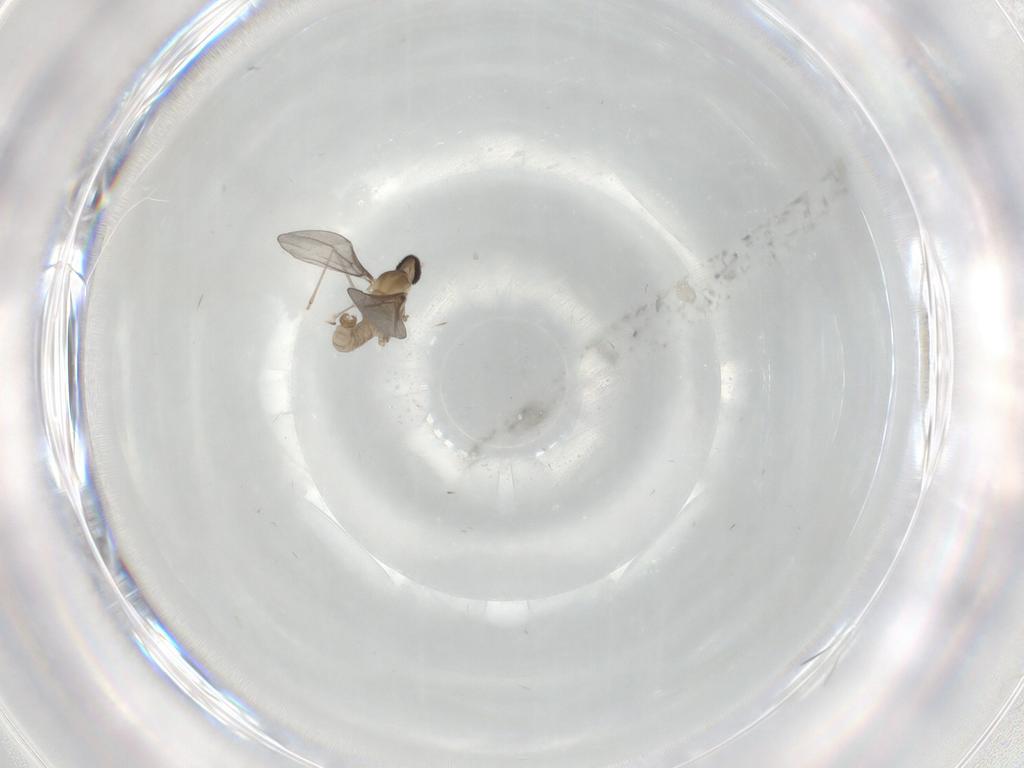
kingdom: Animalia
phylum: Arthropoda
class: Insecta
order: Diptera
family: Cecidomyiidae
